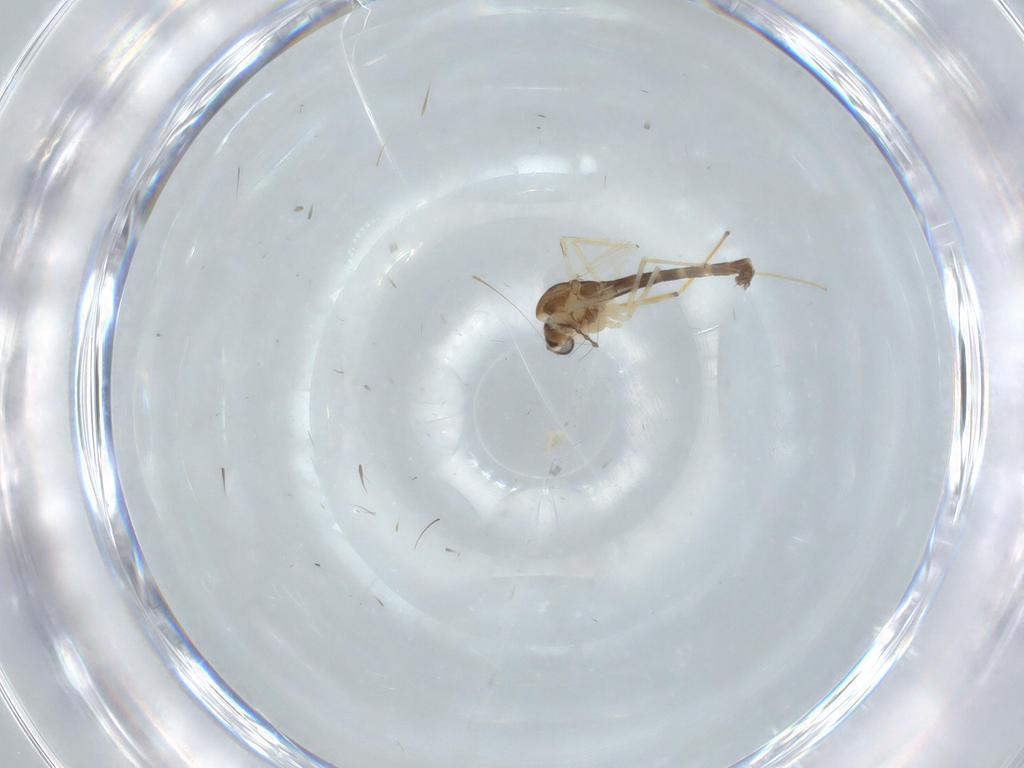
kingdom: Animalia
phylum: Arthropoda
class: Insecta
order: Diptera
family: Chironomidae
